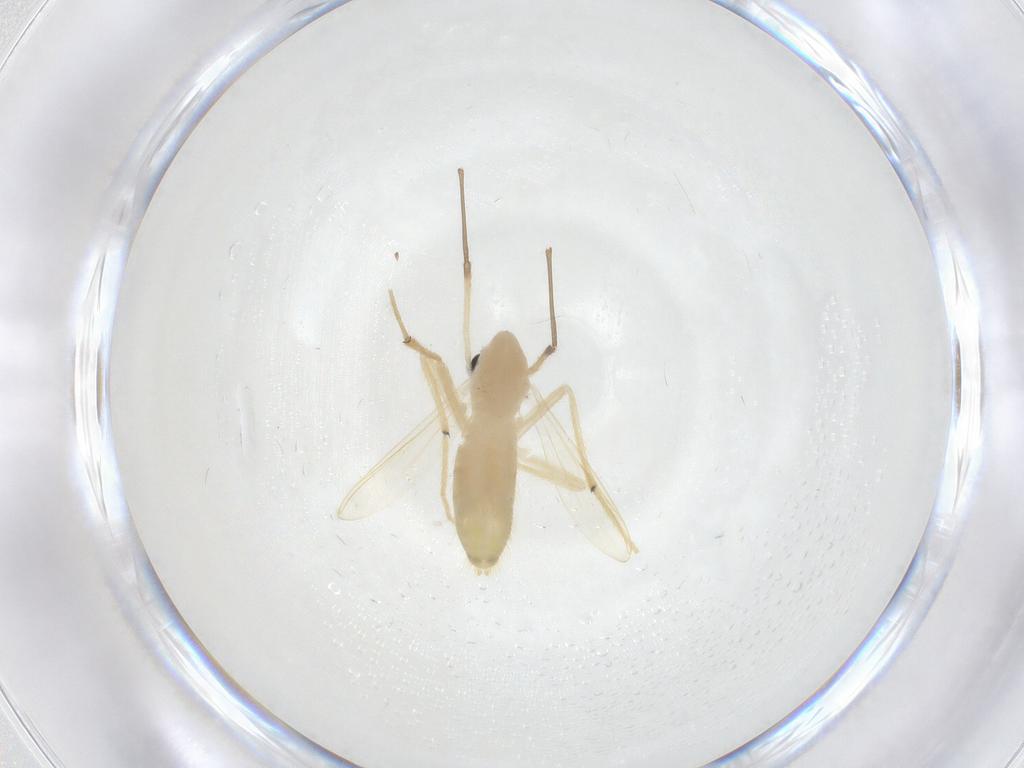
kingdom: Animalia
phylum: Arthropoda
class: Insecta
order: Diptera
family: Chironomidae
